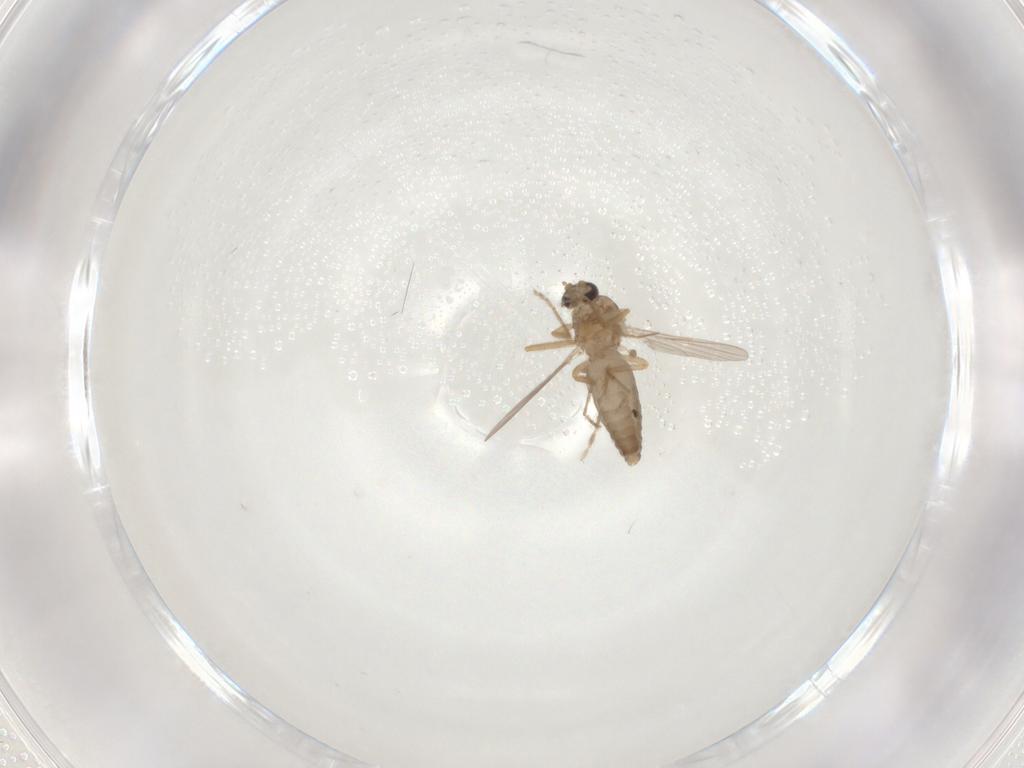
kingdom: Animalia
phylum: Arthropoda
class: Insecta
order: Diptera
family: Ceratopogonidae
